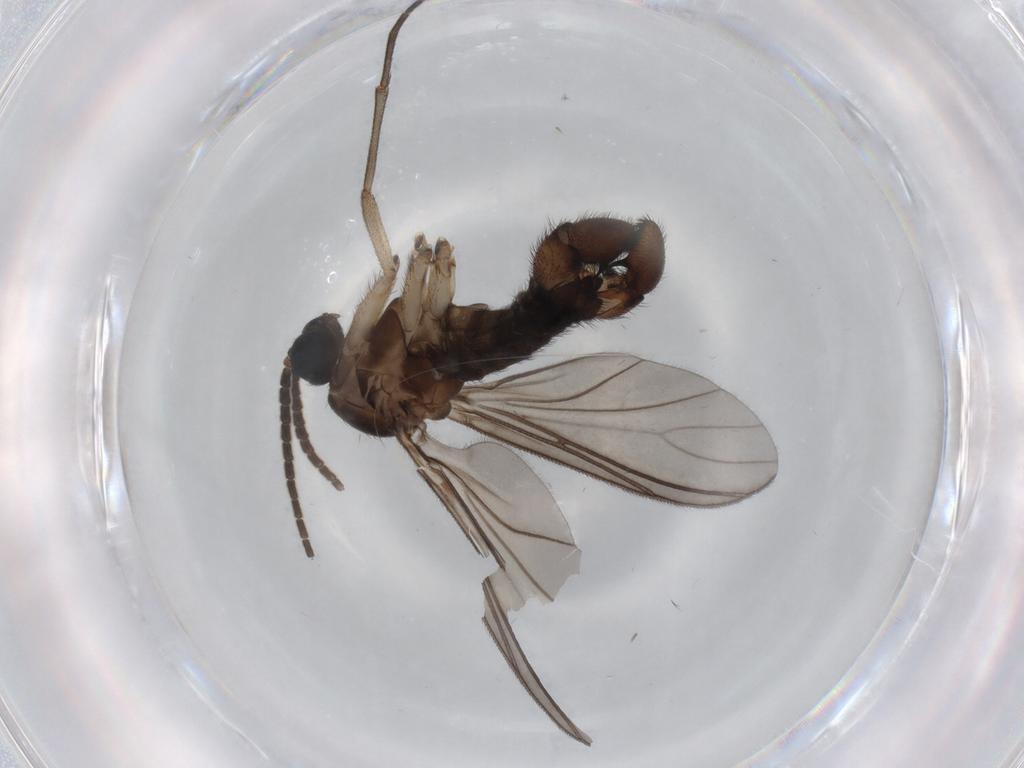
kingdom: Animalia
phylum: Arthropoda
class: Insecta
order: Diptera
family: Sciaridae
